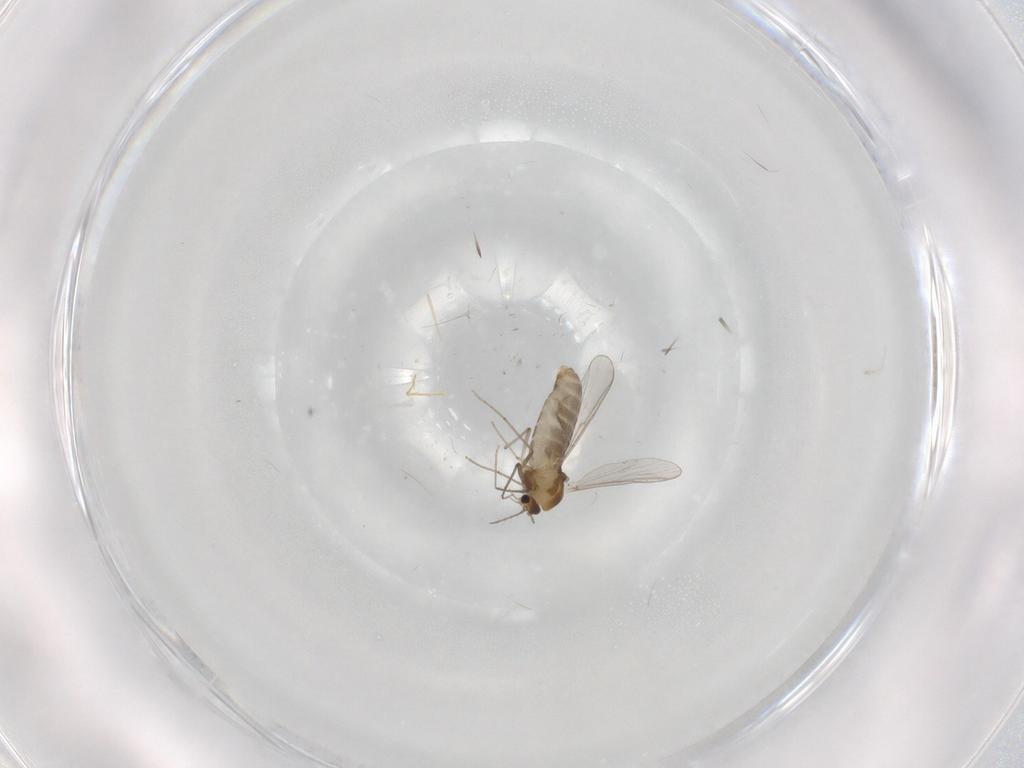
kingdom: Animalia
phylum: Arthropoda
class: Insecta
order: Diptera
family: Chironomidae
